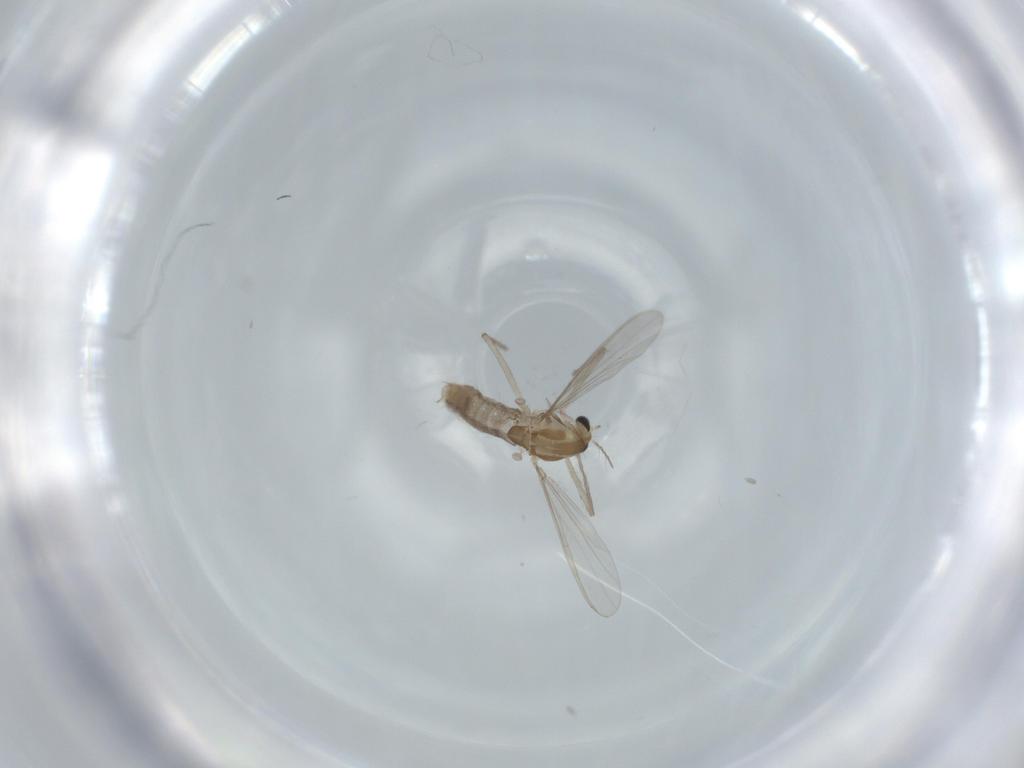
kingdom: Animalia
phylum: Arthropoda
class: Insecta
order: Diptera
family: Chironomidae
